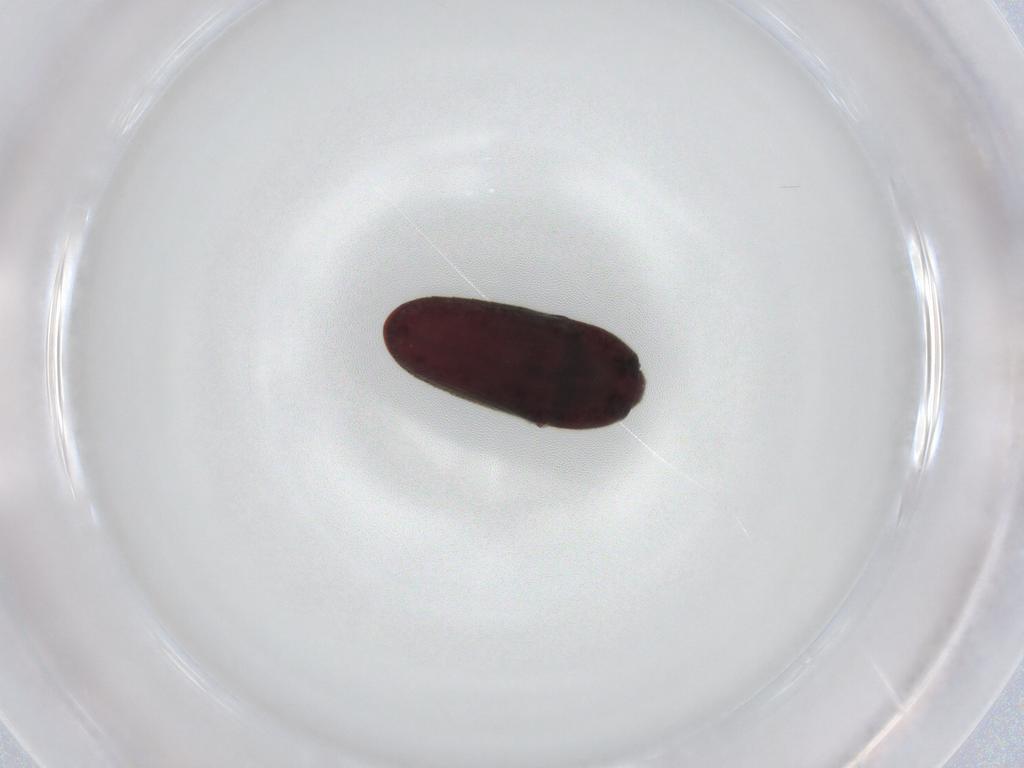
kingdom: Animalia
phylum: Arthropoda
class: Insecta
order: Coleoptera
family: Throscidae
